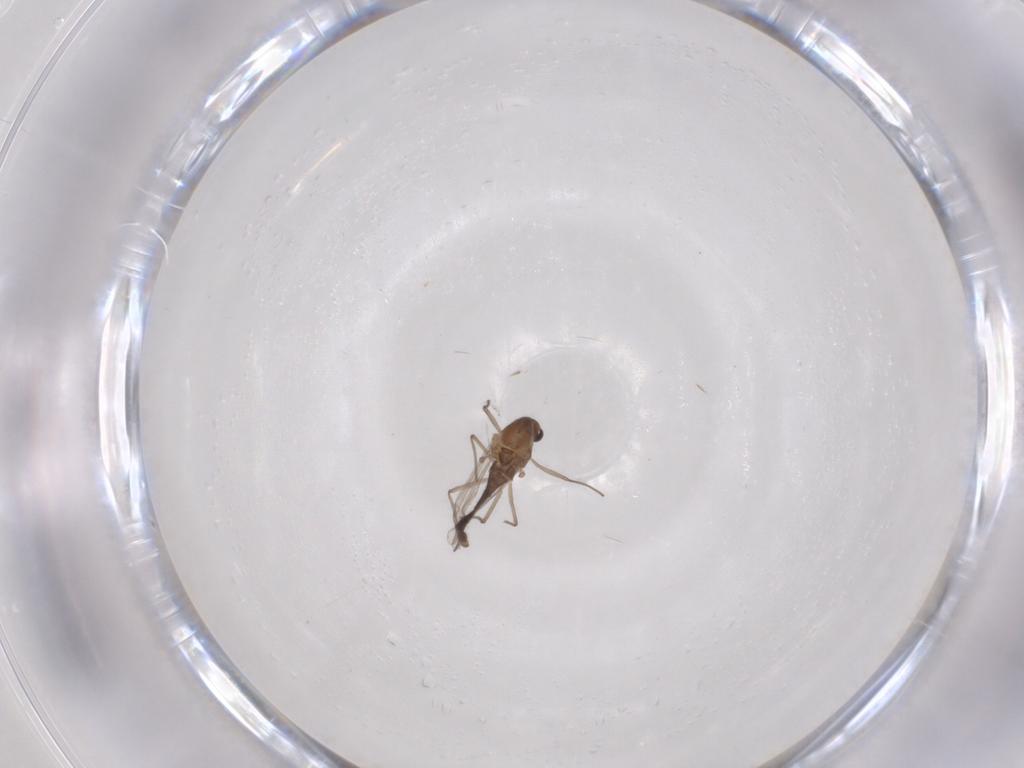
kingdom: Animalia
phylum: Arthropoda
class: Insecta
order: Diptera
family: Chironomidae
